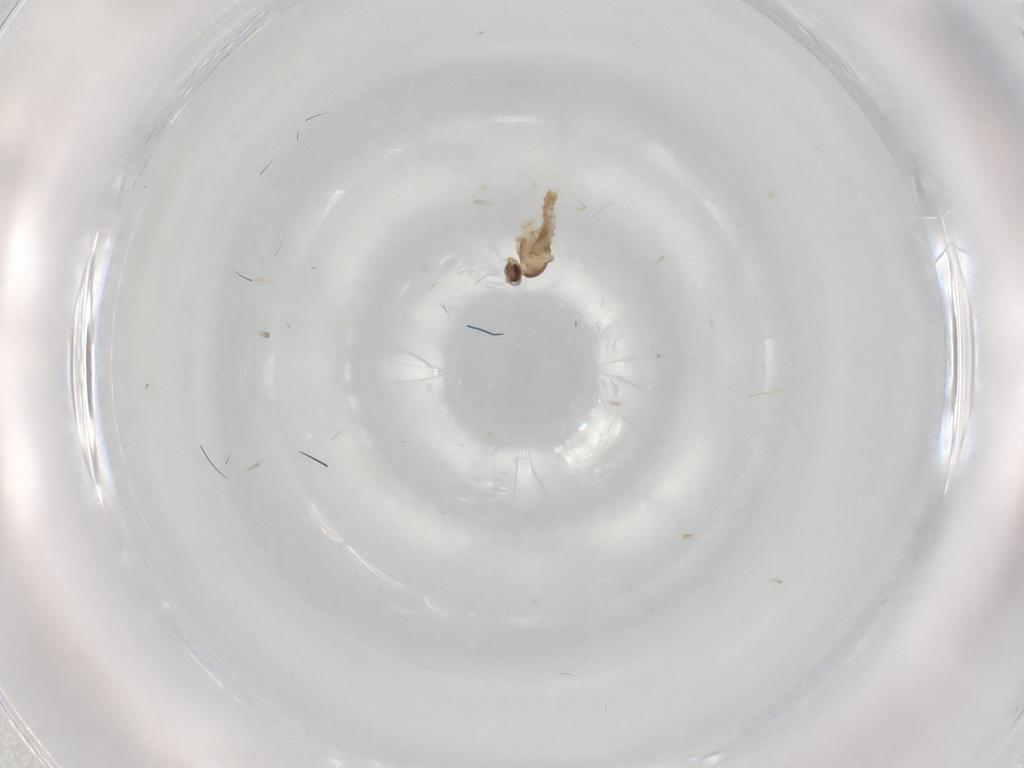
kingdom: Animalia
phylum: Arthropoda
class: Insecta
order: Diptera
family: Cecidomyiidae
